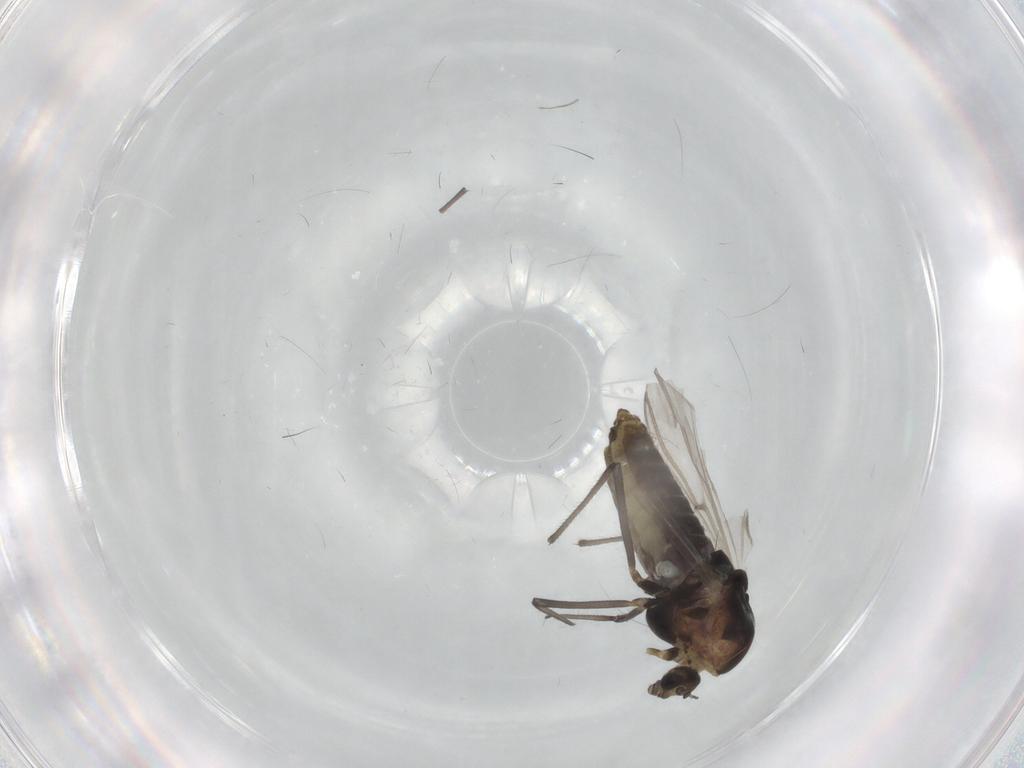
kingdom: Animalia
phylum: Arthropoda
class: Insecta
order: Diptera
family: Chironomidae
